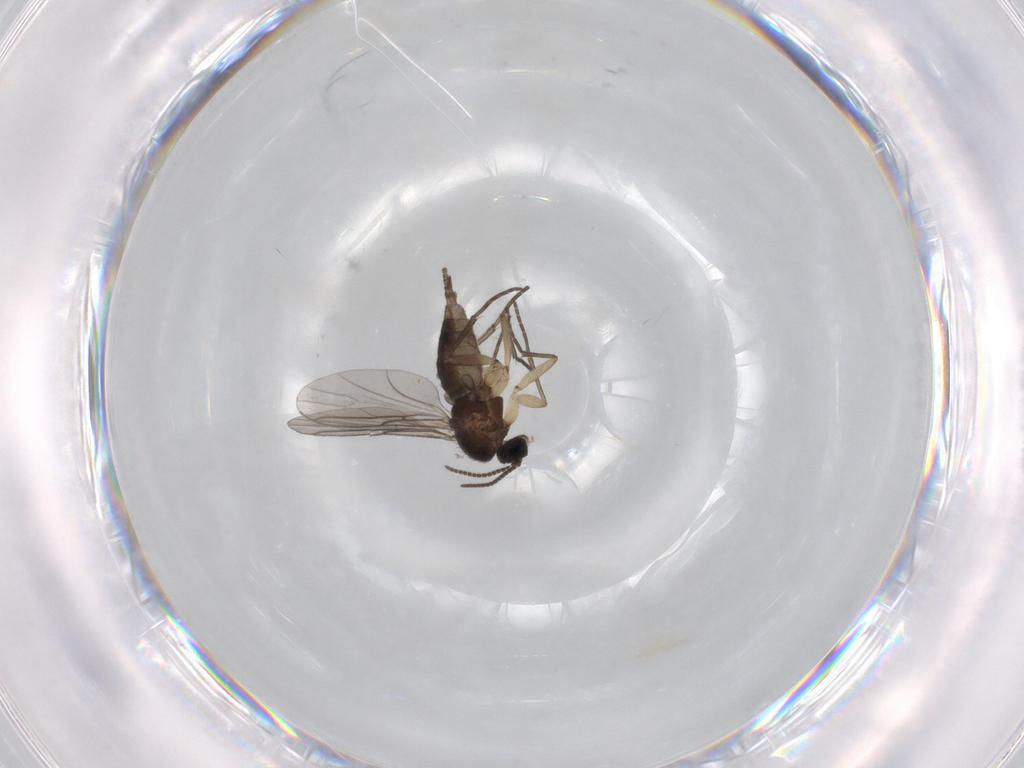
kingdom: Animalia
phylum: Arthropoda
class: Insecta
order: Diptera
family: Sciaridae
